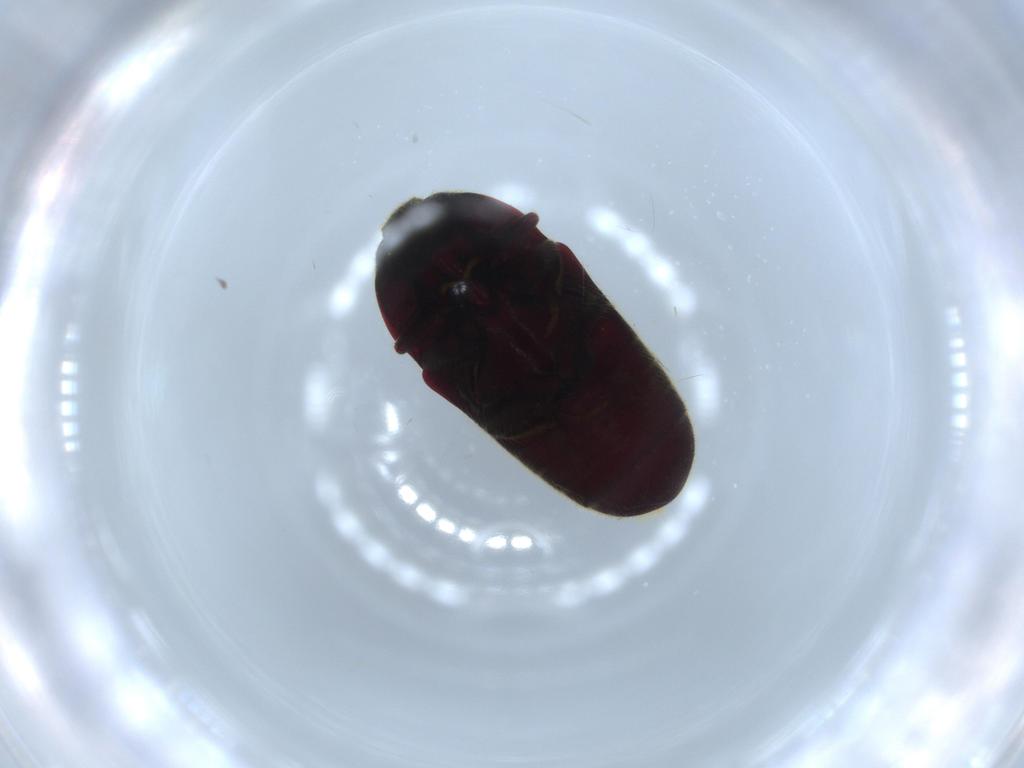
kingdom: Animalia
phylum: Arthropoda
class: Insecta
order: Coleoptera
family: Throscidae
